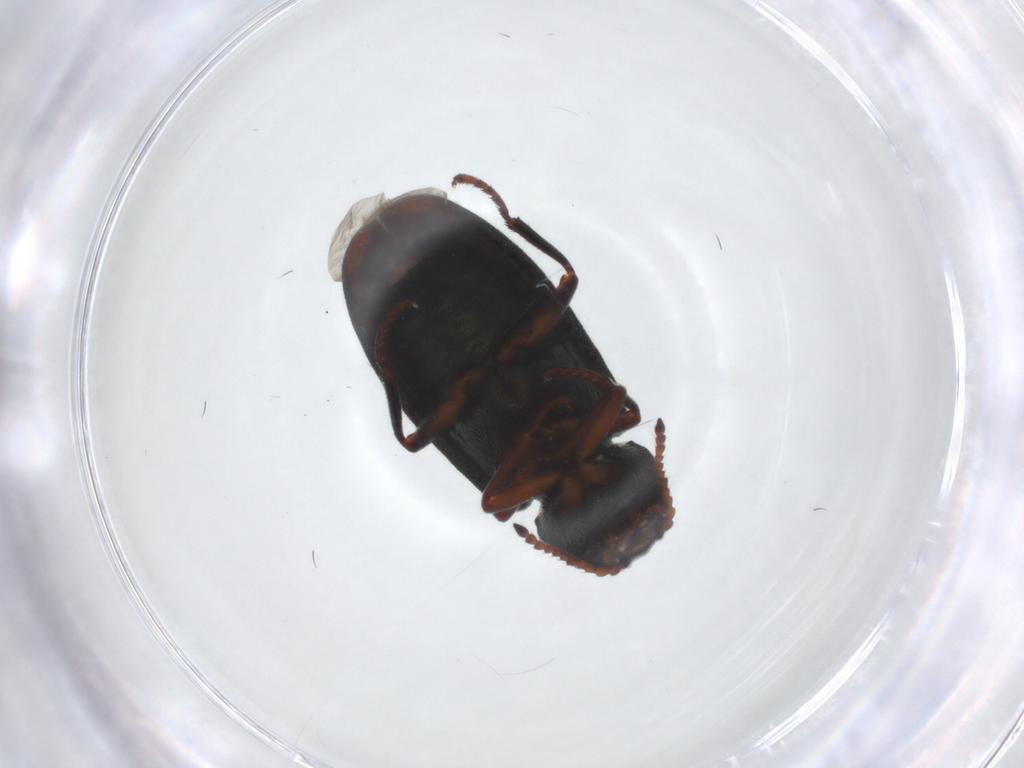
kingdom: Animalia
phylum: Arthropoda
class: Insecta
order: Coleoptera
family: Melyridae
